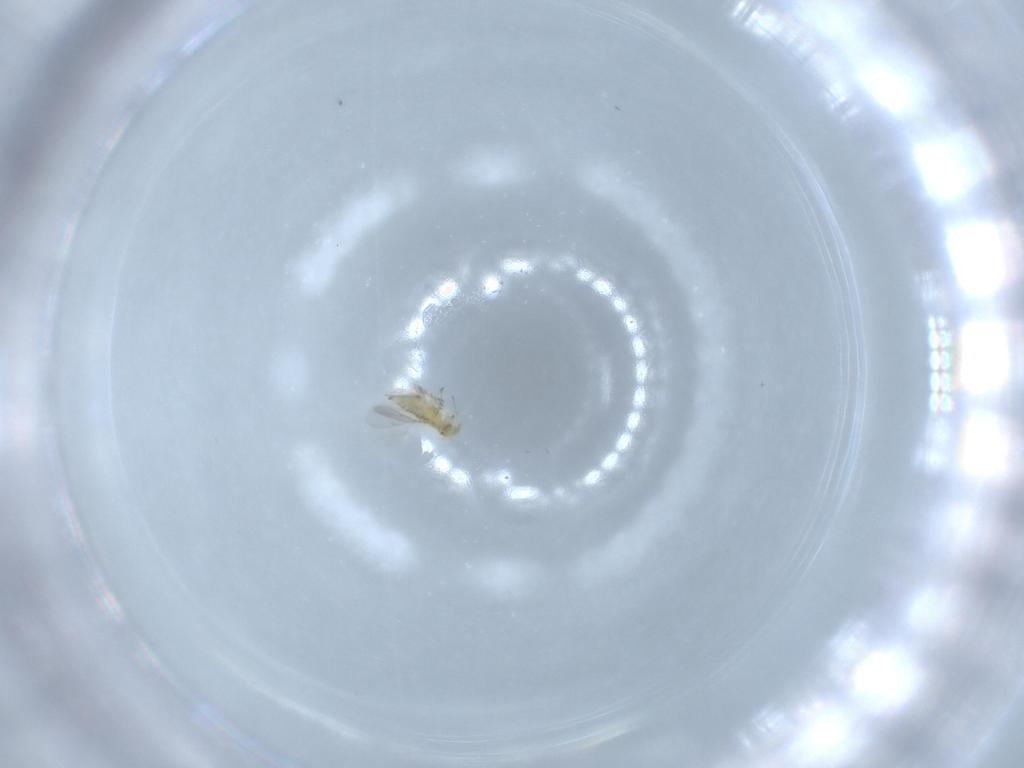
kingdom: Animalia
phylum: Arthropoda
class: Insecta
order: Hymenoptera
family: Aphelinidae
